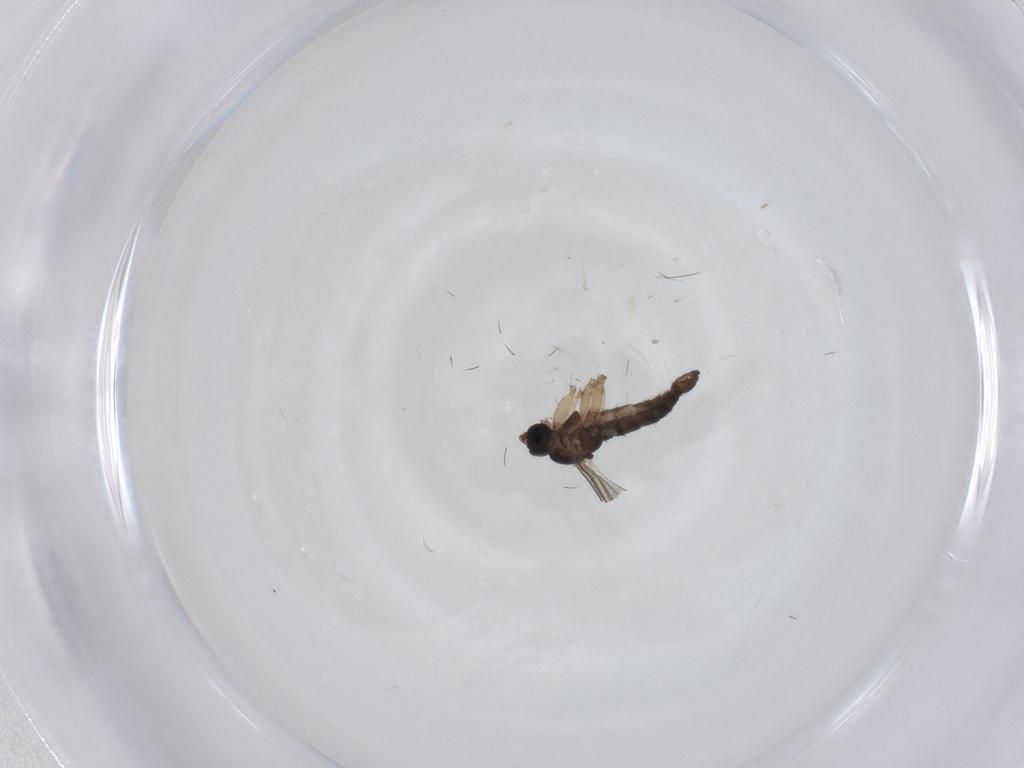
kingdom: Animalia
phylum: Arthropoda
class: Insecta
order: Diptera
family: Sciaridae
